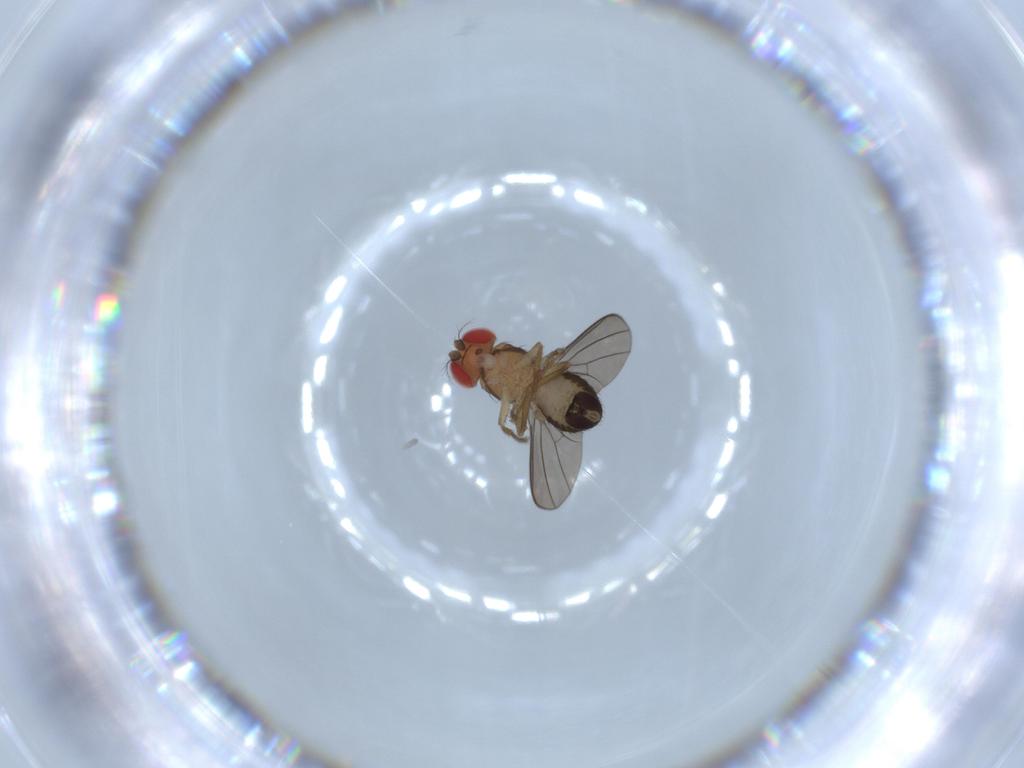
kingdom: Animalia
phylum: Arthropoda
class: Insecta
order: Diptera
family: Drosophilidae
